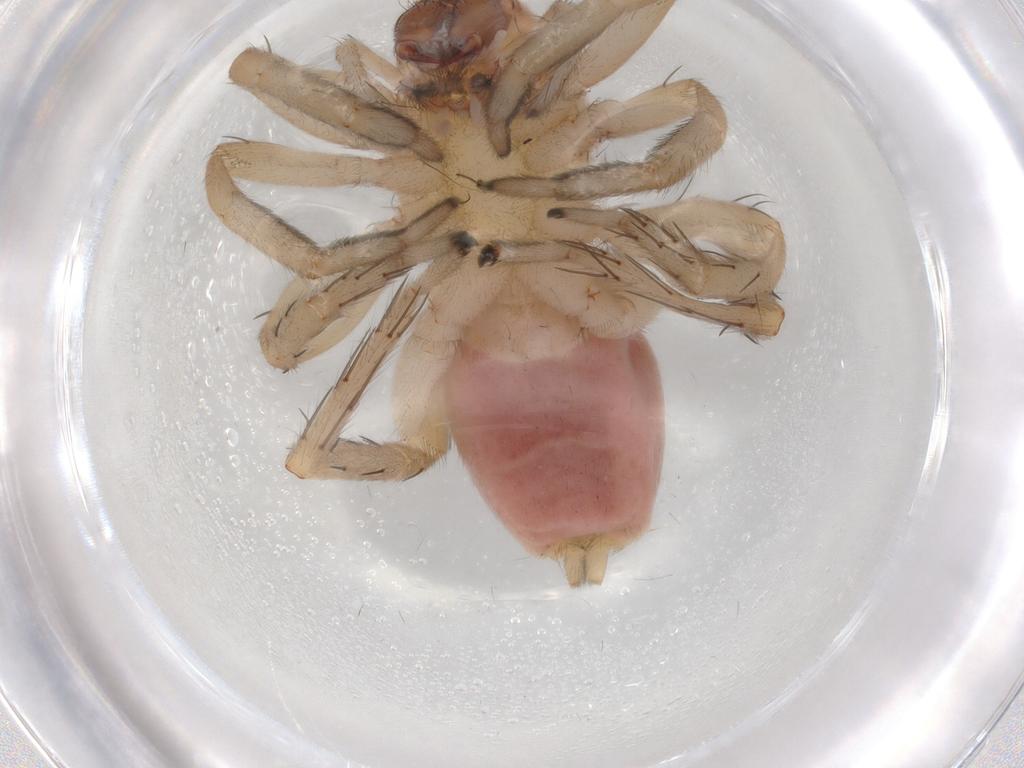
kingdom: Animalia
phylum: Arthropoda
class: Arachnida
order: Araneae
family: Clubionidae
